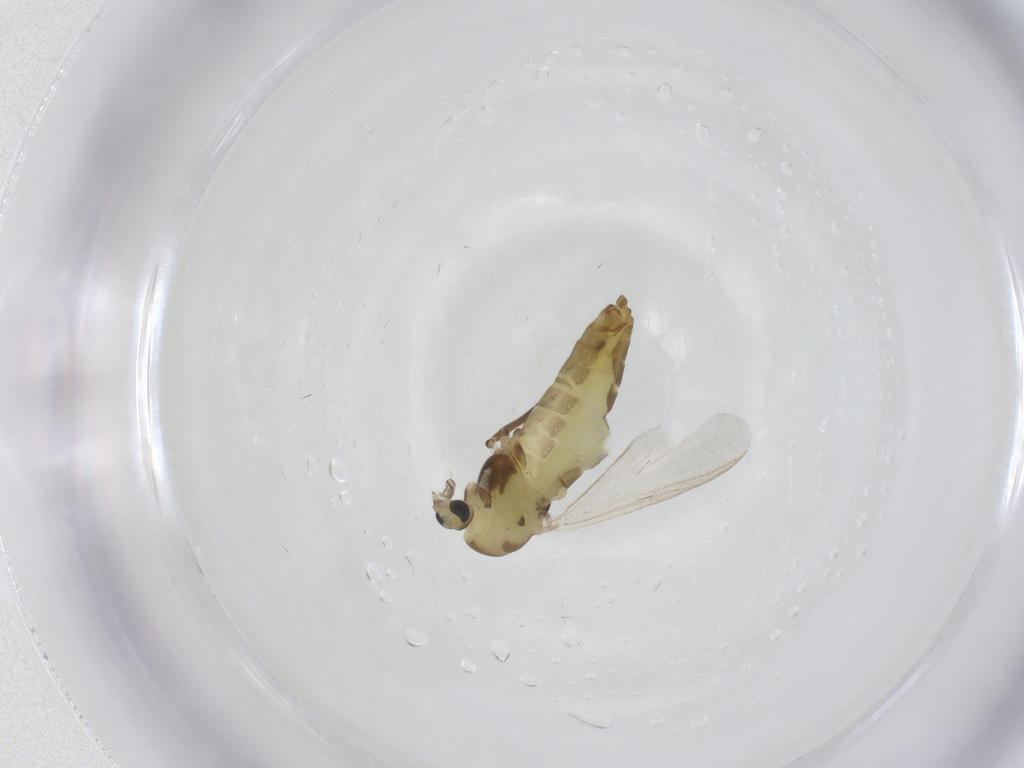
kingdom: Animalia
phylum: Arthropoda
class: Insecta
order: Diptera
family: Chironomidae
